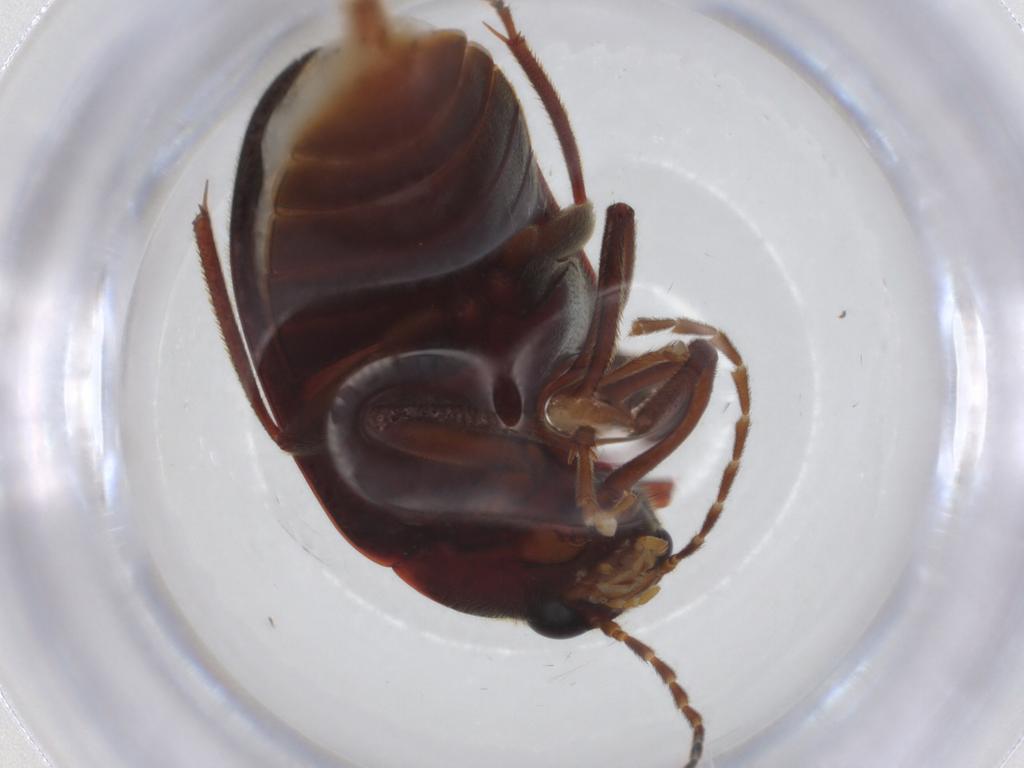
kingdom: Animalia
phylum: Arthropoda
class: Insecta
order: Coleoptera
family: Ptilodactylidae
